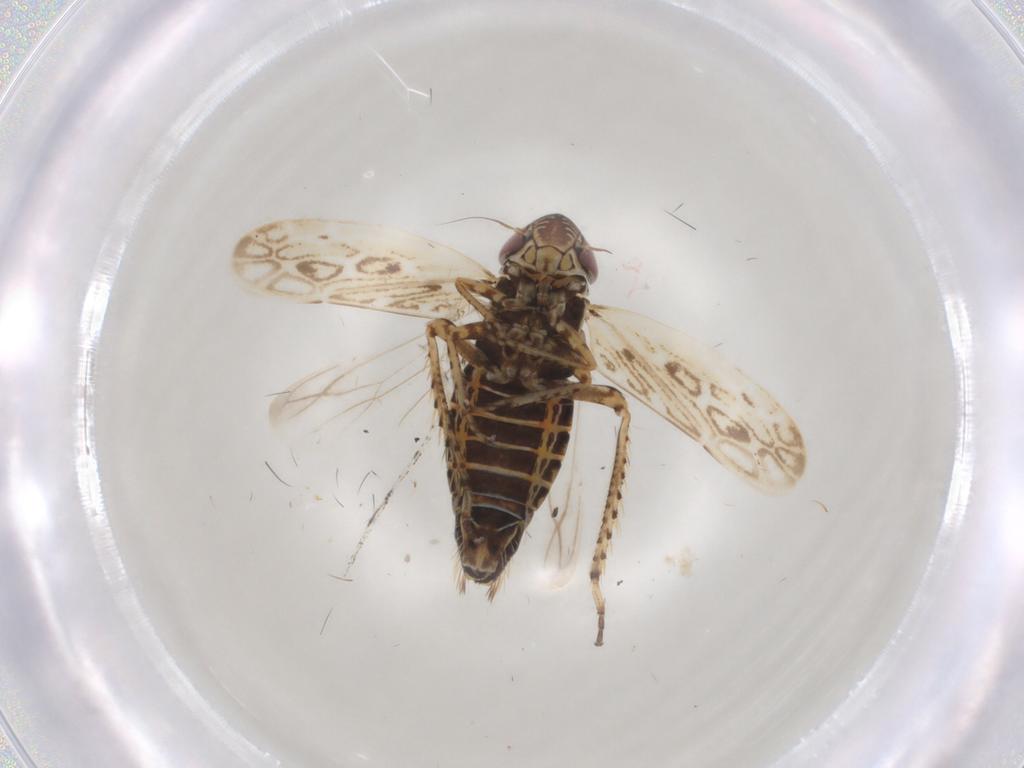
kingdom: Animalia
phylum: Arthropoda
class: Insecta
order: Hemiptera
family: Cicadellidae
